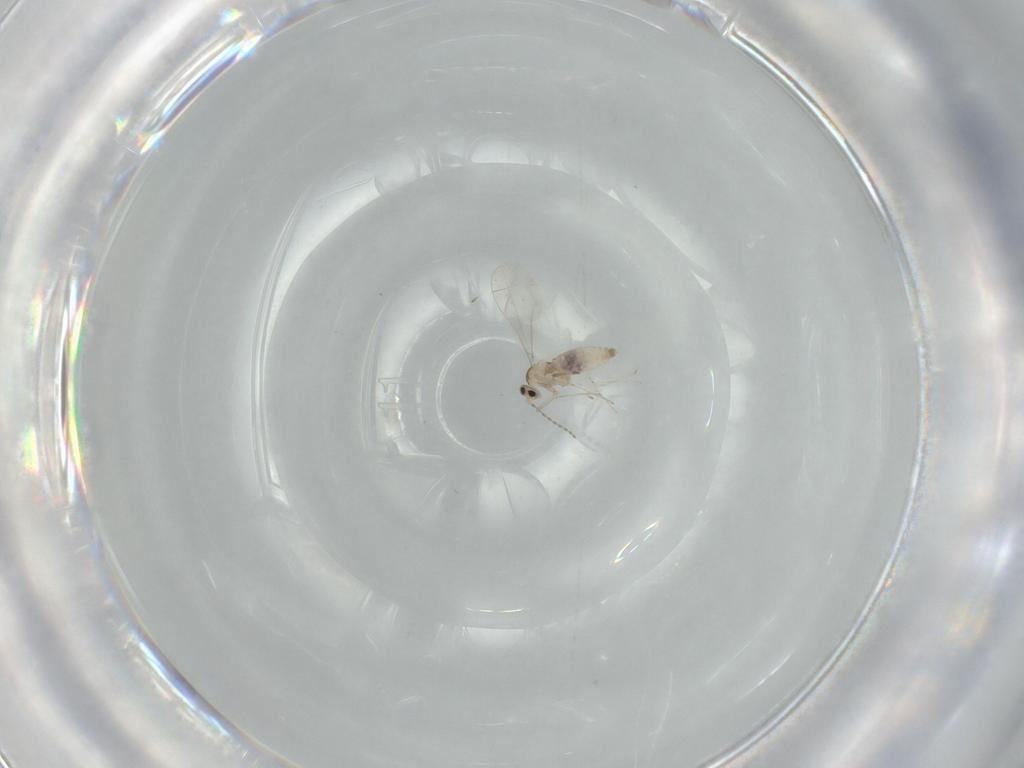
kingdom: Animalia
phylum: Arthropoda
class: Insecta
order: Diptera
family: Cecidomyiidae
